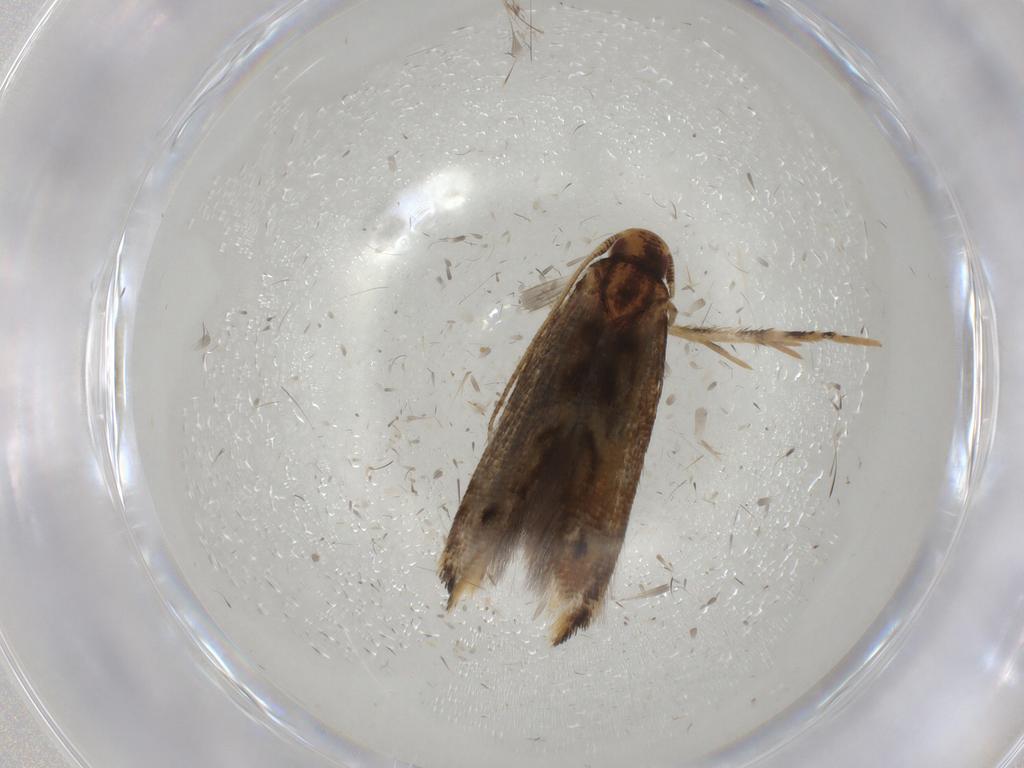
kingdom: Animalia
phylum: Arthropoda
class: Insecta
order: Lepidoptera
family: Momphidae
